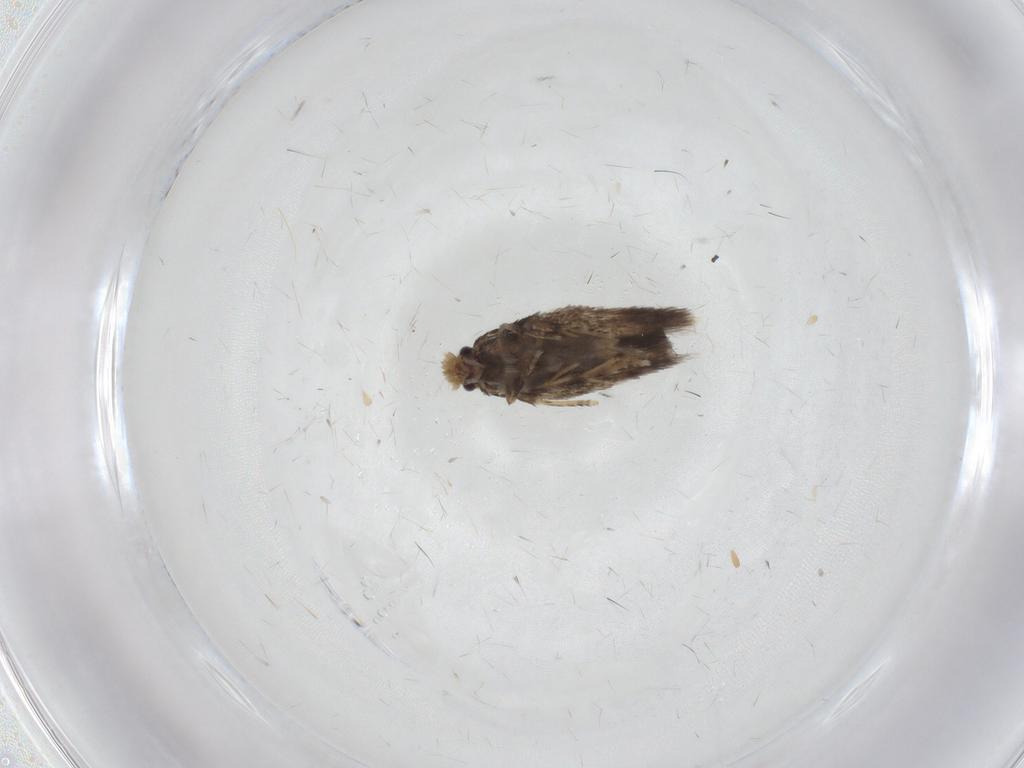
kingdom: Animalia
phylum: Arthropoda
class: Insecta
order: Lepidoptera
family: Nepticulidae
